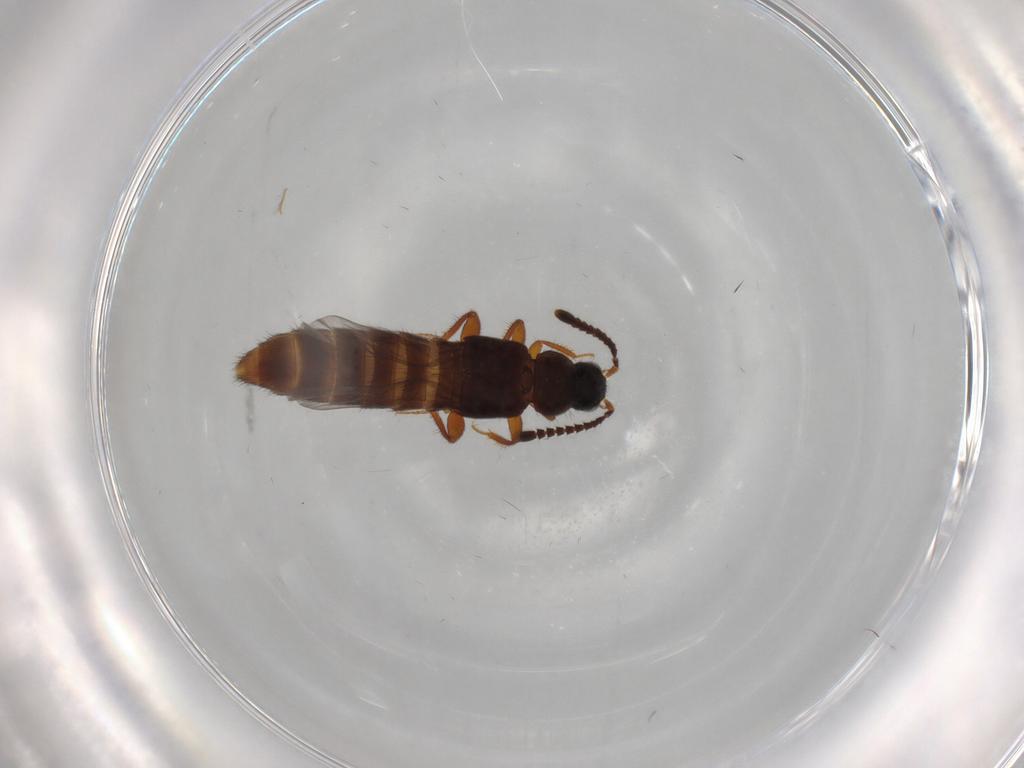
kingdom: Animalia
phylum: Arthropoda
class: Insecta
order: Coleoptera
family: Staphylinidae
